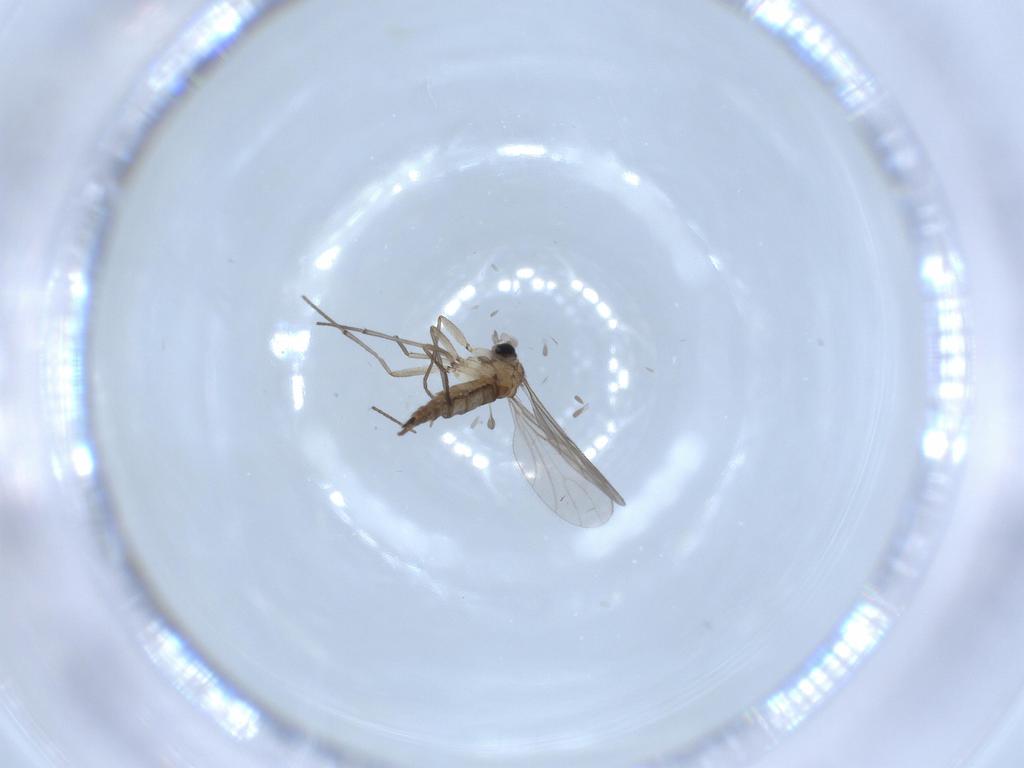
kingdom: Animalia
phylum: Arthropoda
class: Insecta
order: Diptera
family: Sciaridae
